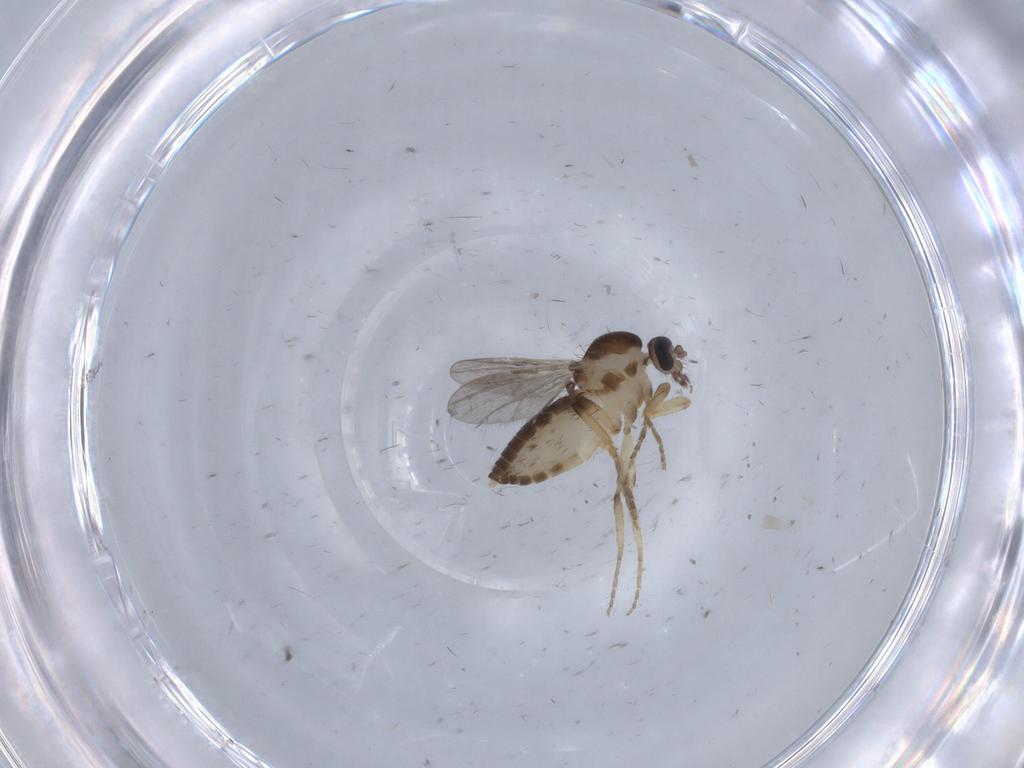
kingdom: Animalia
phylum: Arthropoda
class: Insecta
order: Diptera
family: Ceratopogonidae
